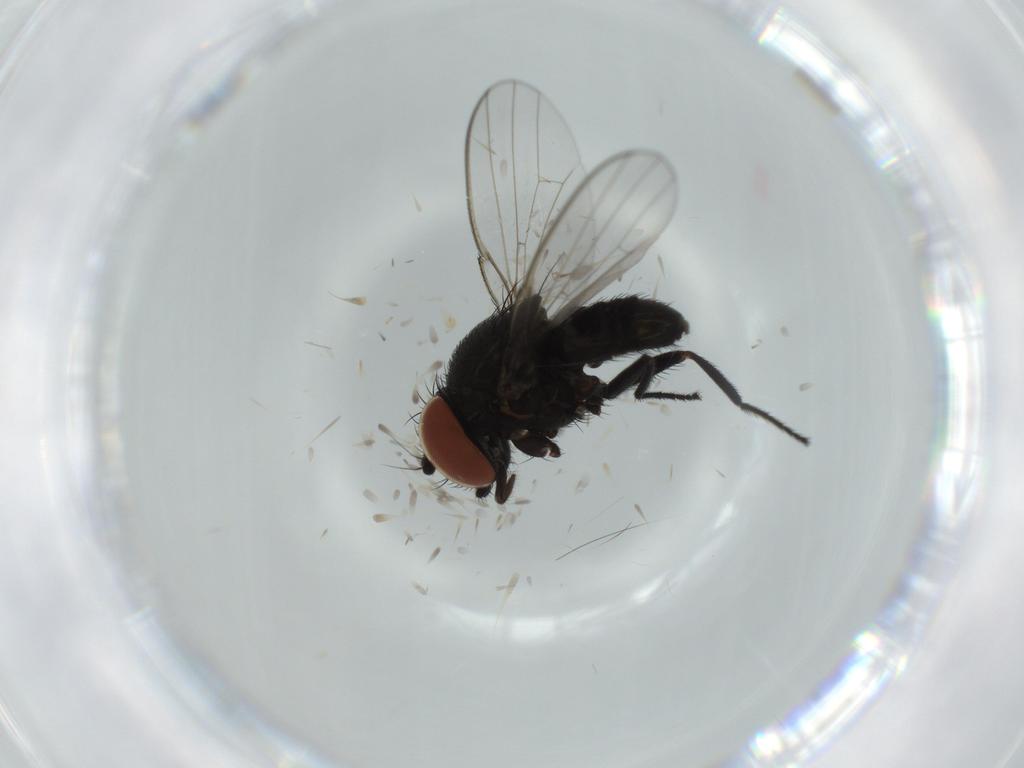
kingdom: Animalia
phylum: Arthropoda
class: Insecta
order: Diptera
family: Milichiidae
